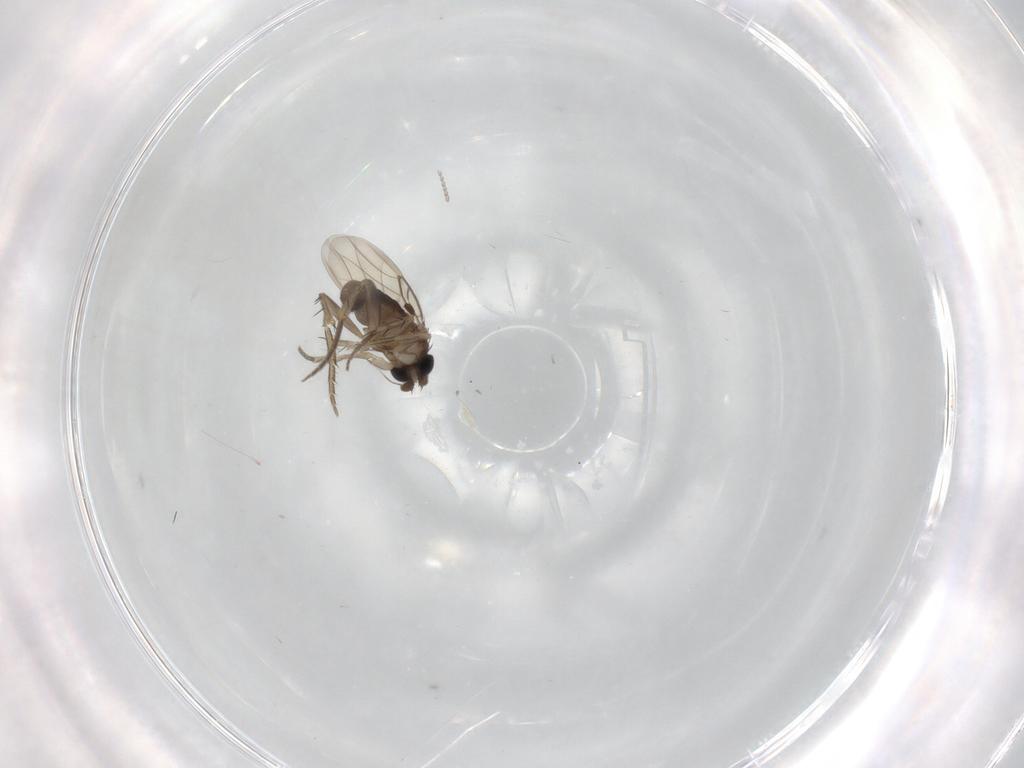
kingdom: Animalia
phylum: Arthropoda
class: Insecta
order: Diptera
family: Phoridae
